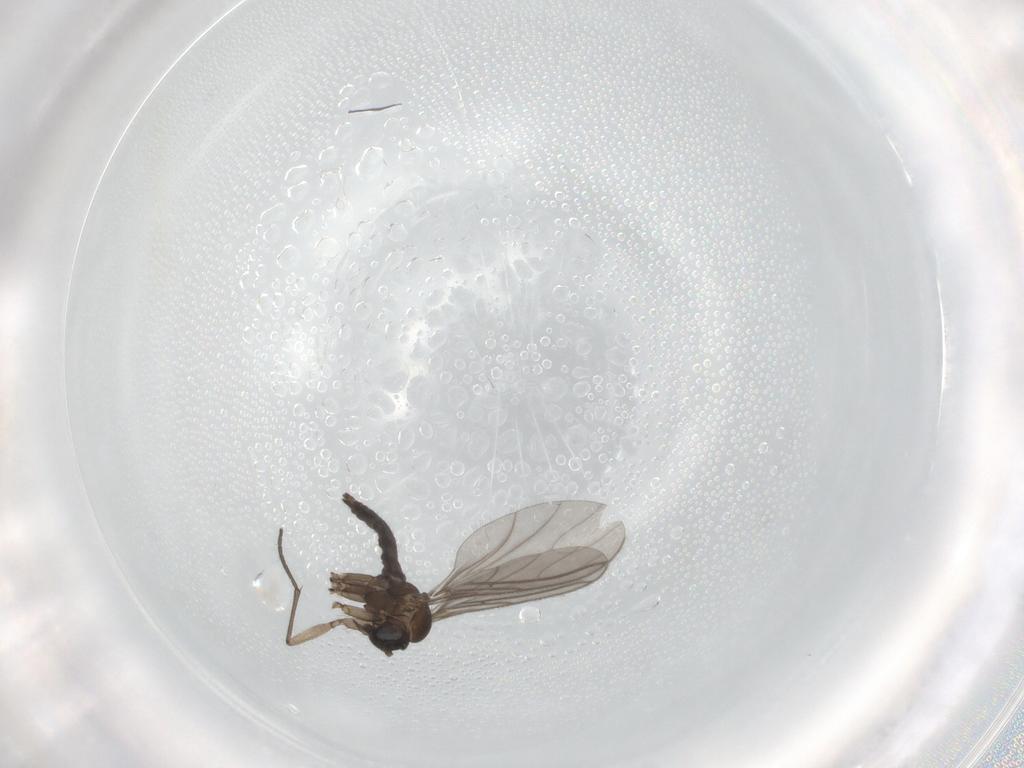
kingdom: Animalia
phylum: Arthropoda
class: Insecta
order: Diptera
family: Sciaridae
